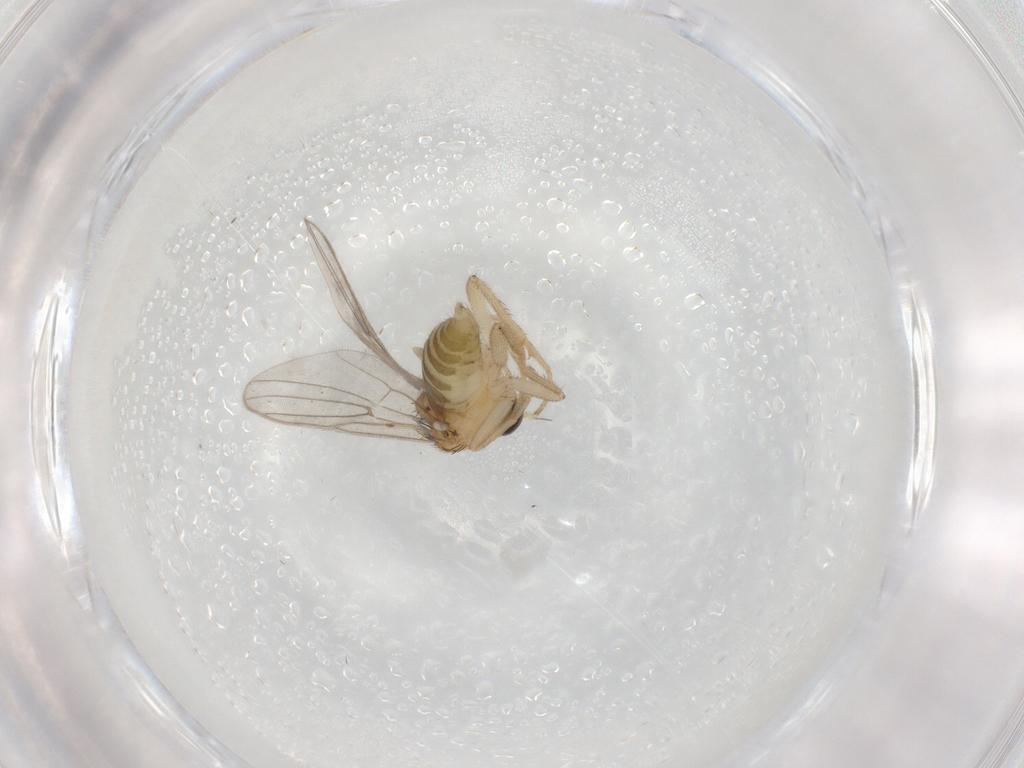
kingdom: Animalia
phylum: Arthropoda
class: Insecta
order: Diptera
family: Hybotidae
